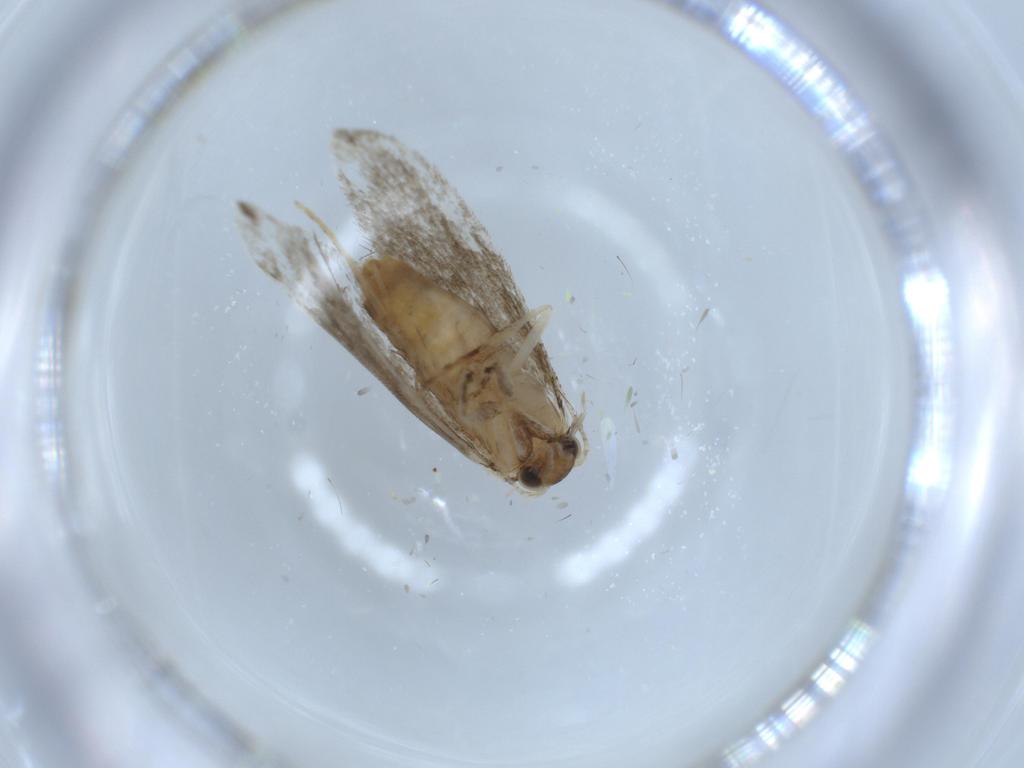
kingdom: Animalia
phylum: Arthropoda
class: Insecta
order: Lepidoptera
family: Tineidae
